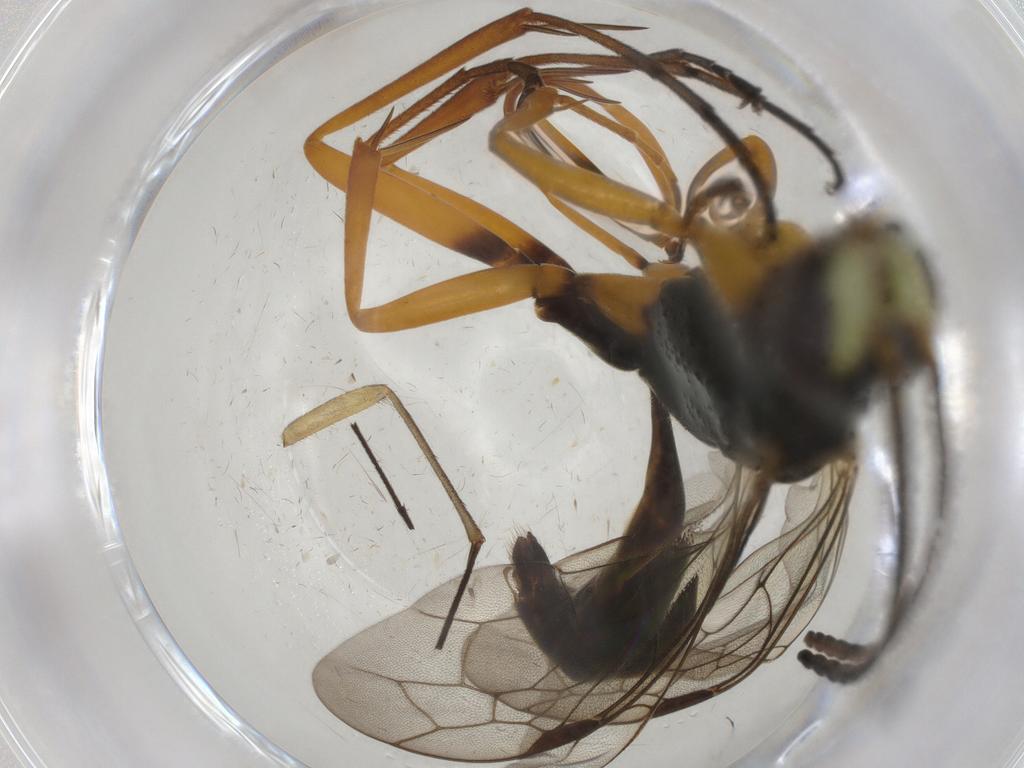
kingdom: Animalia
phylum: Arthropoda
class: Insecta
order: Hymenoptera
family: Pompilidae
